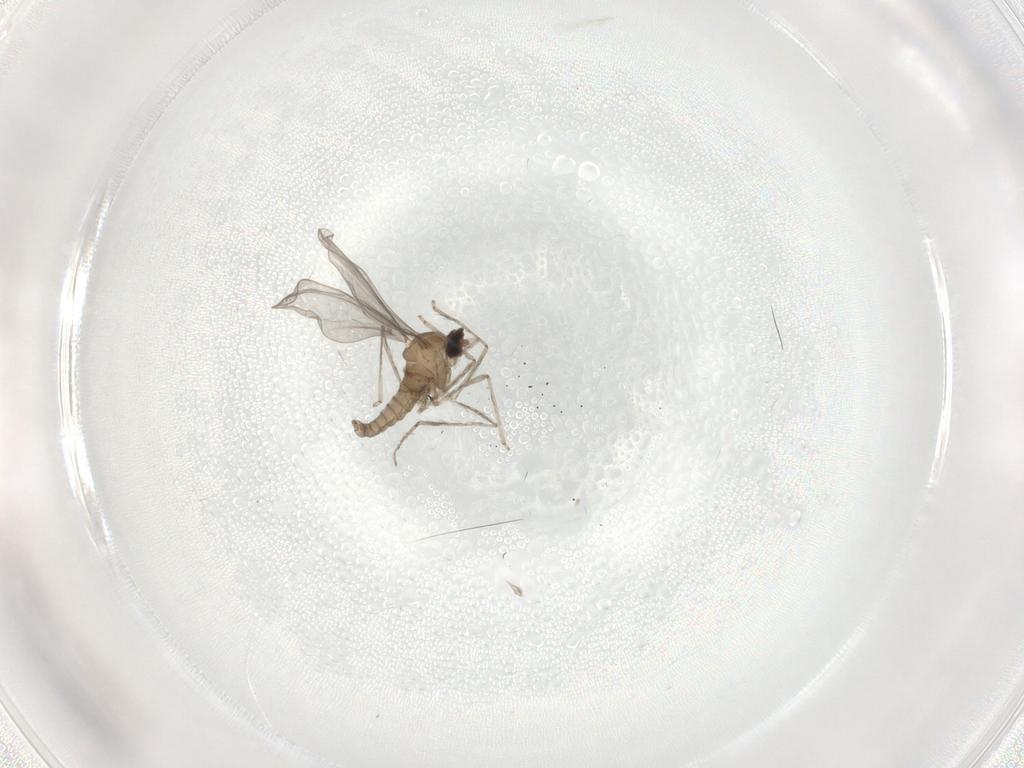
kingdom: Animalia
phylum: Arthropoda
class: Insecta
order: Diptera
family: Cecidomyiidae
